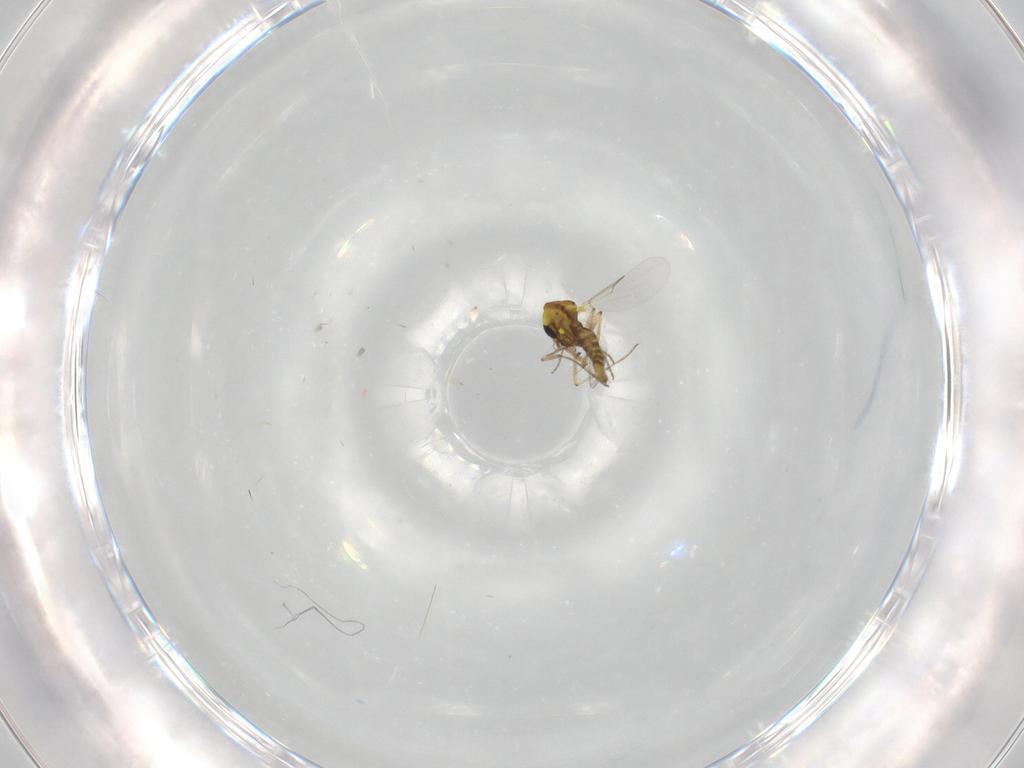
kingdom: Animalia
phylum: Arthropoda
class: Insecta
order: Diptera
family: Ceratopogonidae
